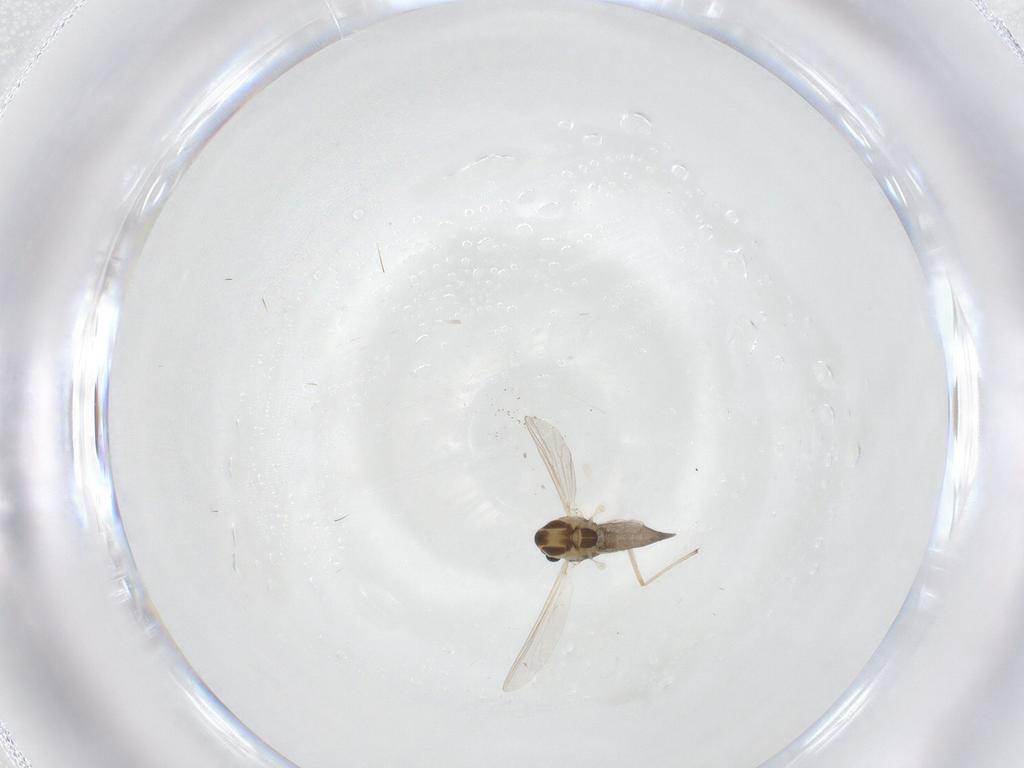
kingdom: Animalia
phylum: Arthropoda
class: Insecta
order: Diptera
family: Chironomidae
